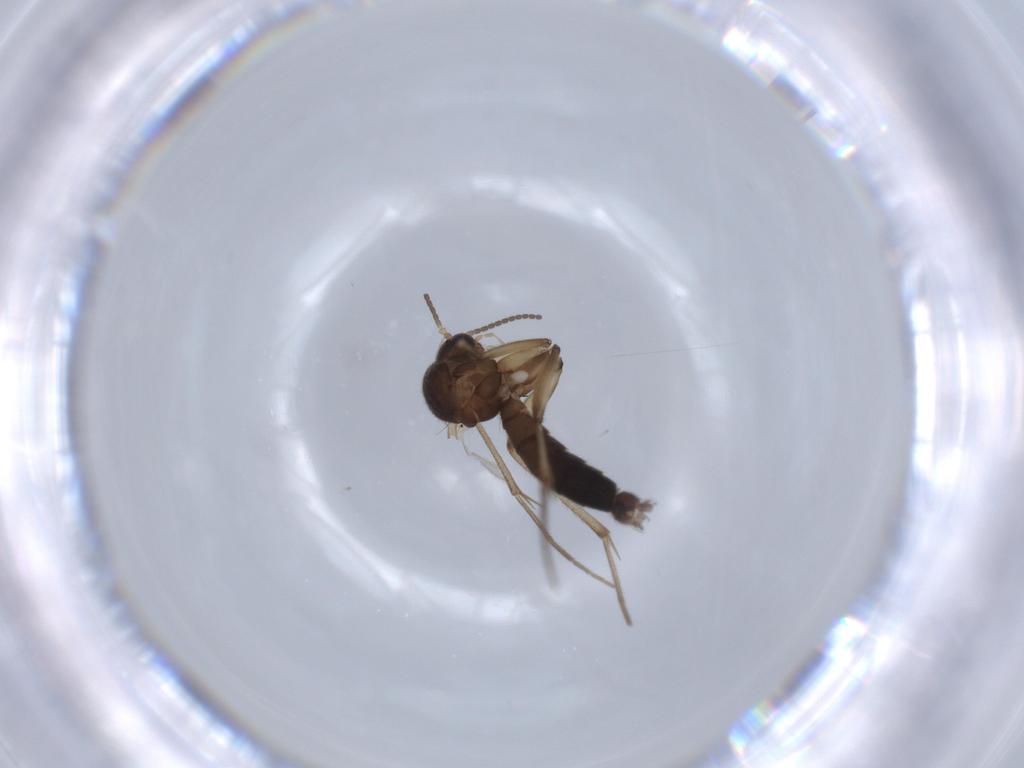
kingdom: Animalia
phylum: Arthropoda
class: Insecta
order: Diptera
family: Mycetophilidae
